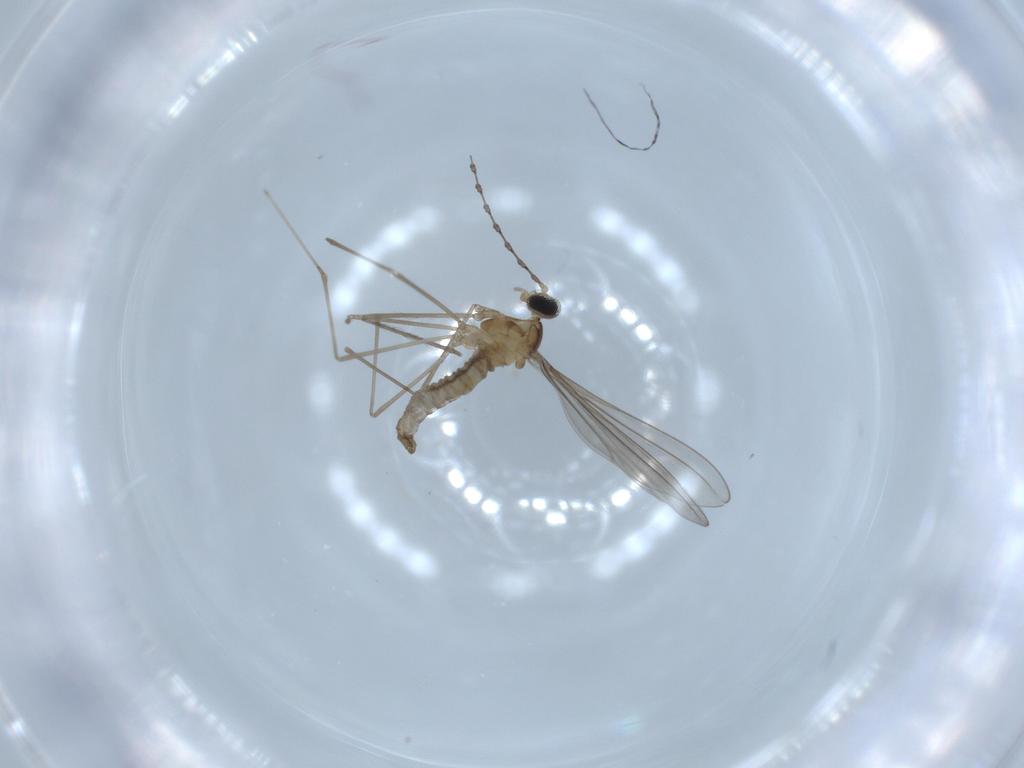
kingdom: Animalia
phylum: Arthropoda
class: Insecta
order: Diptera
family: Cecidomyiidae
